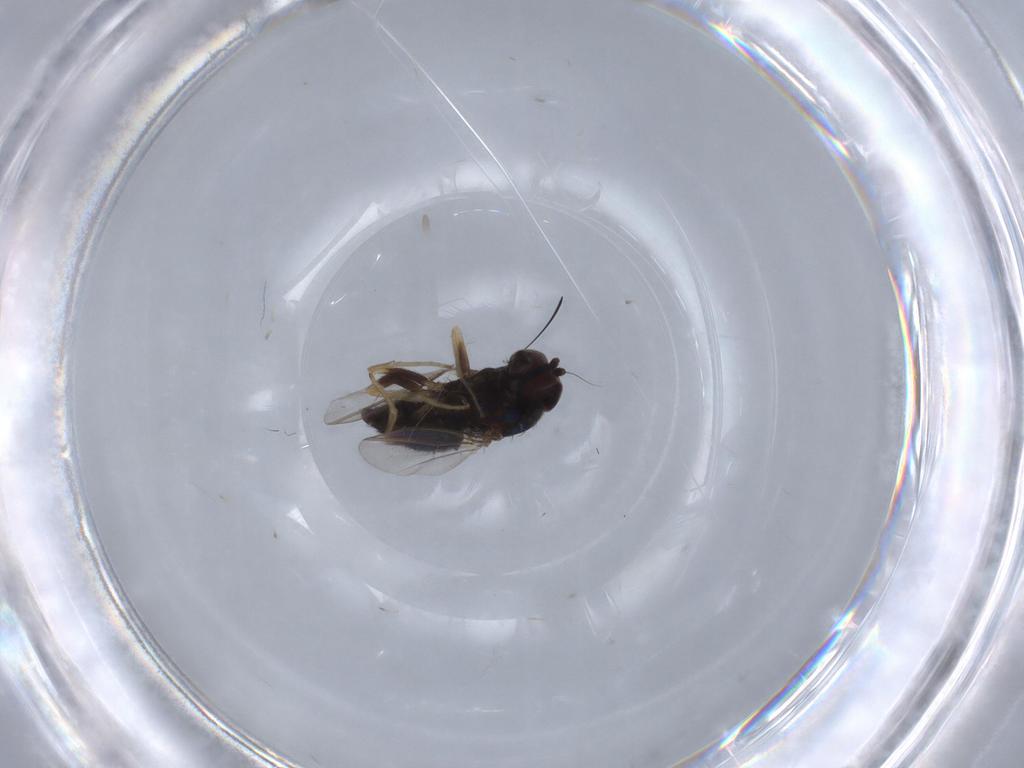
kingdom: Animalia
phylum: Arthropoda
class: Insecta
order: Diptera
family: Dolichopodidae
